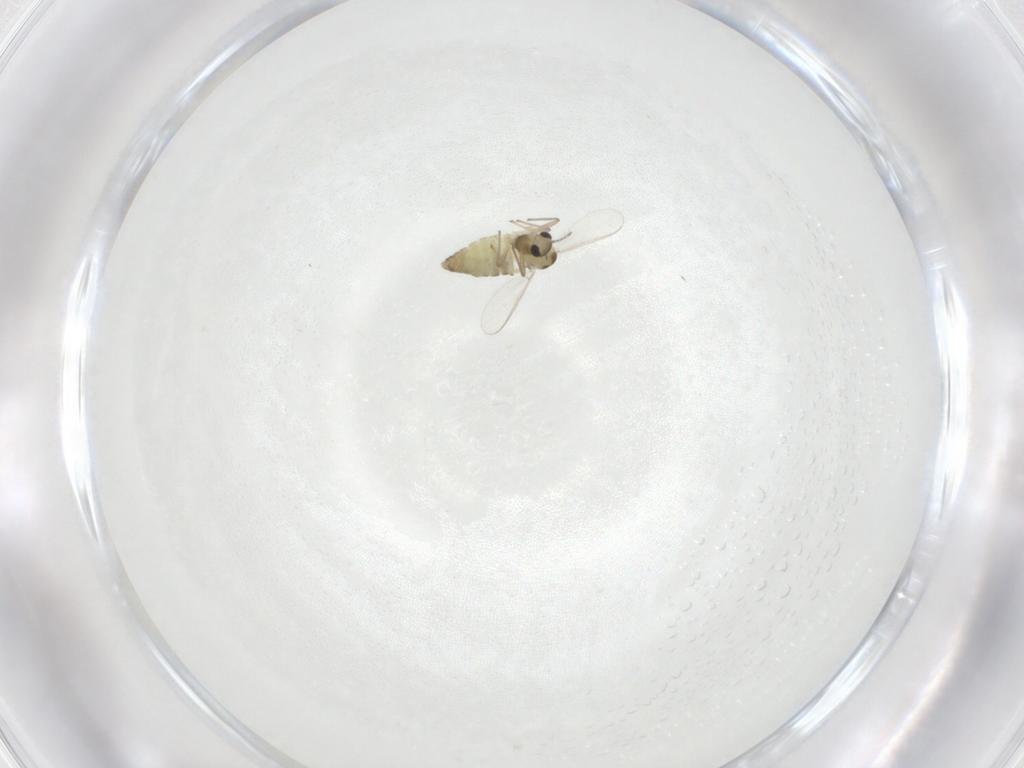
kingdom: Animalia
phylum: Arthropoda
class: Insecta
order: Diptera
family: Chironomidae
